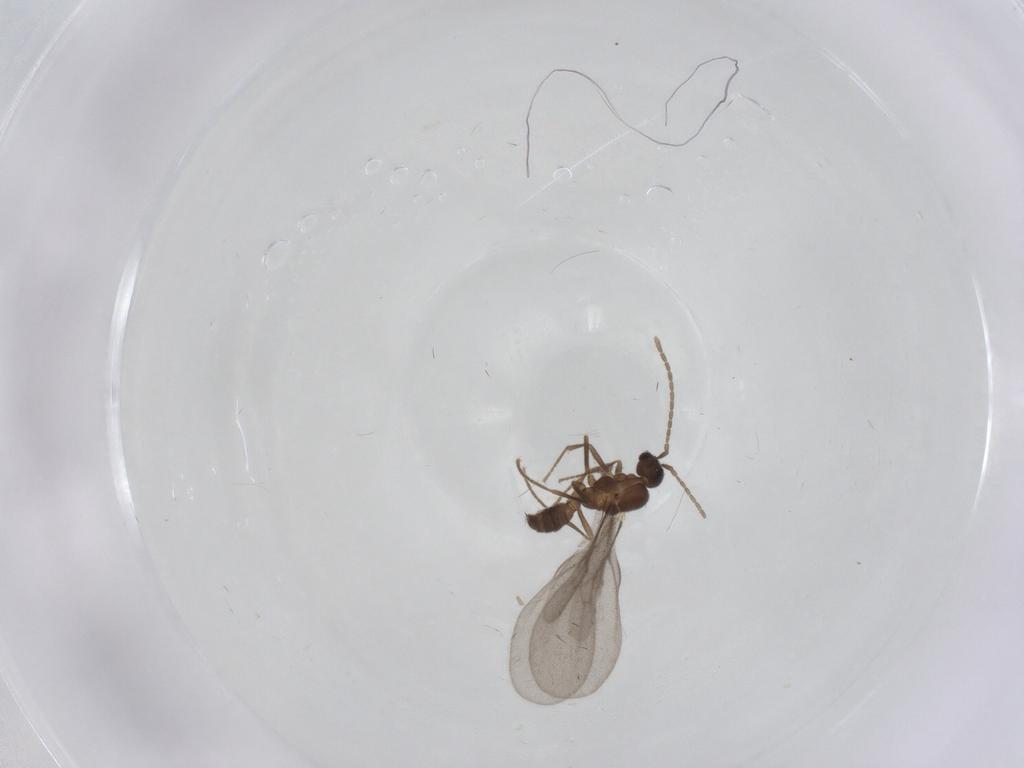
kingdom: Animalia
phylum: Arthropoda
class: Insecta
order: Hymenoptera
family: Formicidae
